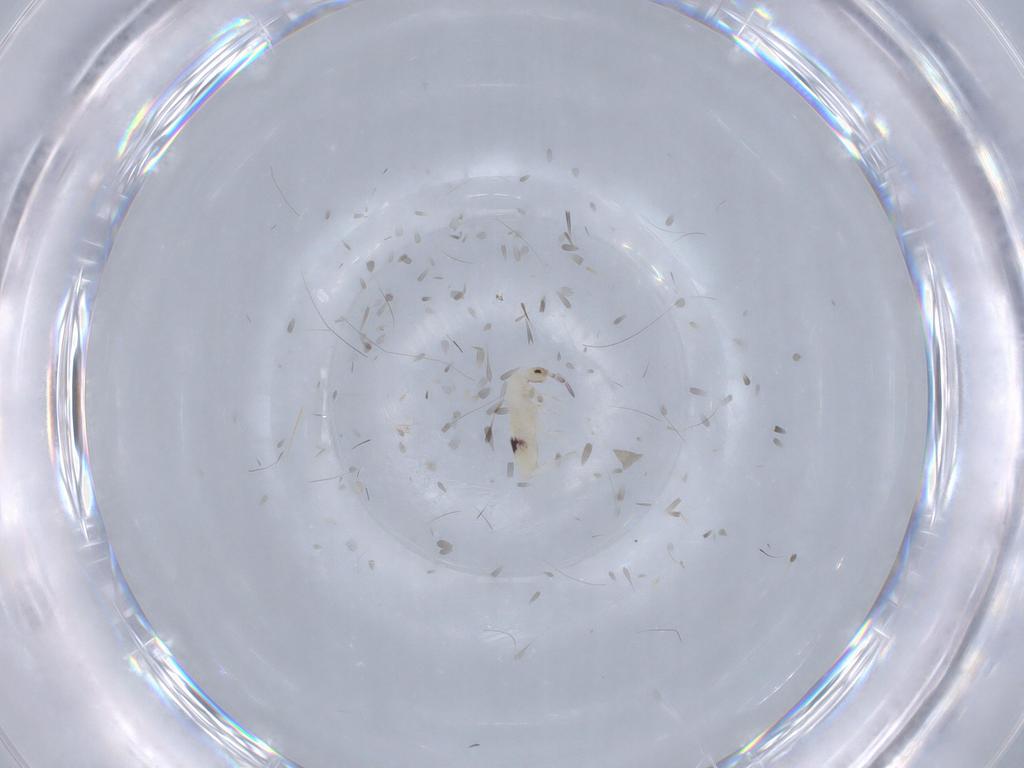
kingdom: Animalia
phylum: Arthropoda
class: Collembola
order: Entomobryomorpha
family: Entomobryidae
